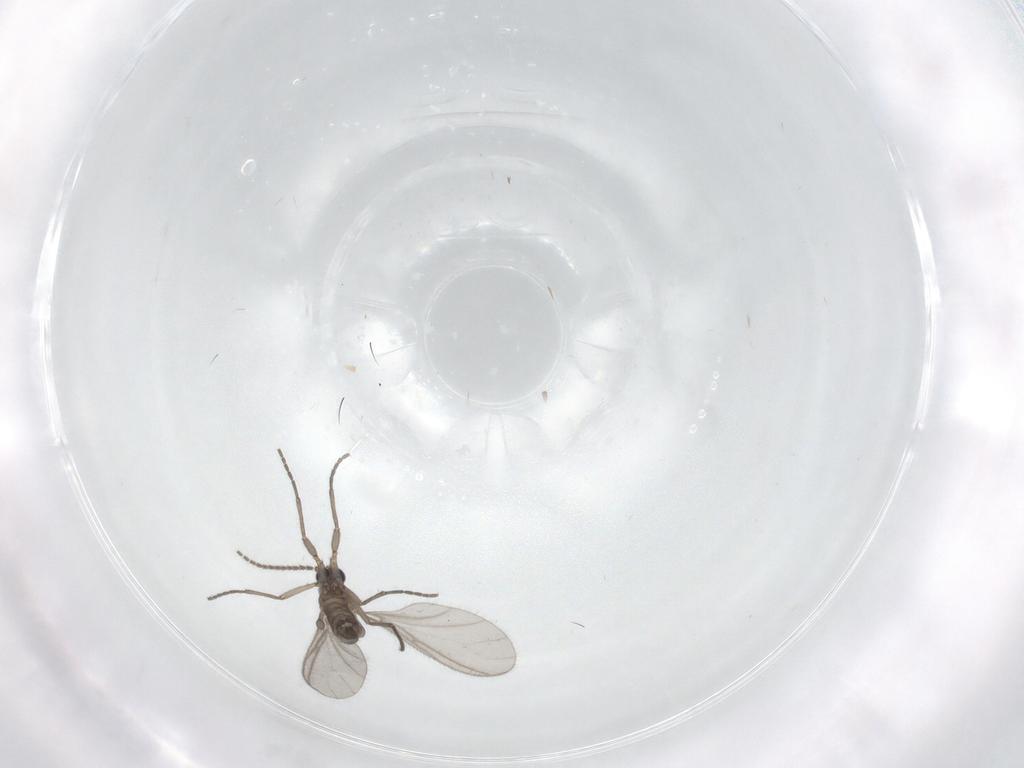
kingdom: Animalia
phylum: Arthropoda
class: Insecta
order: Diptera
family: Sciaridae
